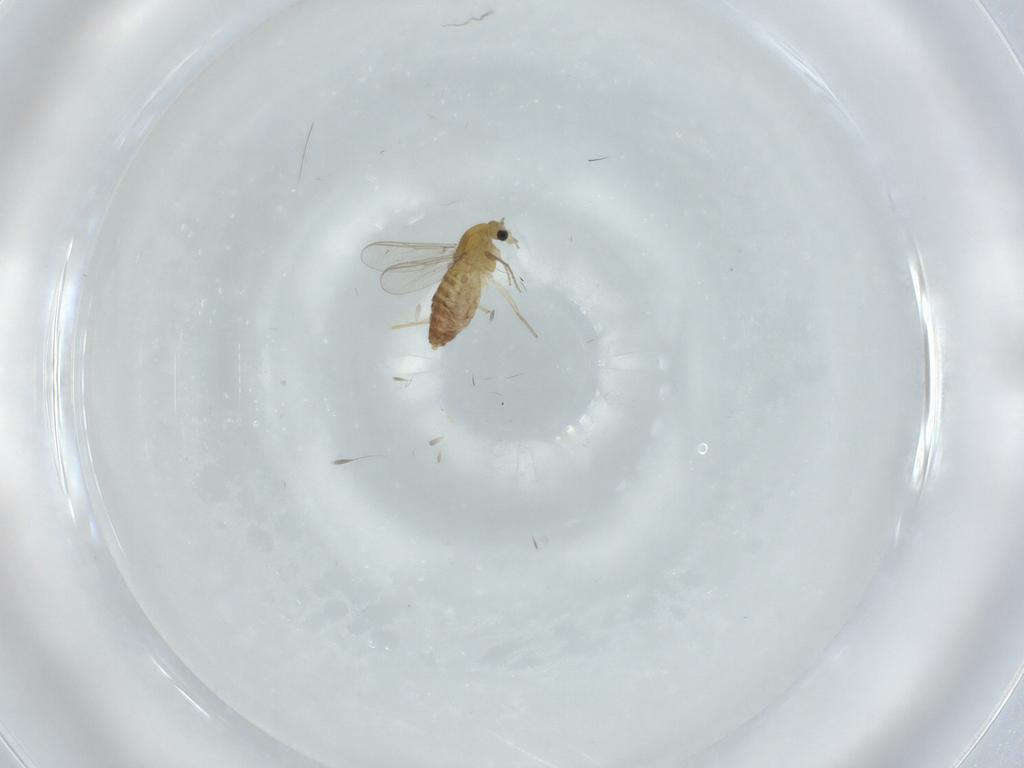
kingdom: Animalia
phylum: Arthropoda
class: Insecta
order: Diptera
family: Chironomidae
